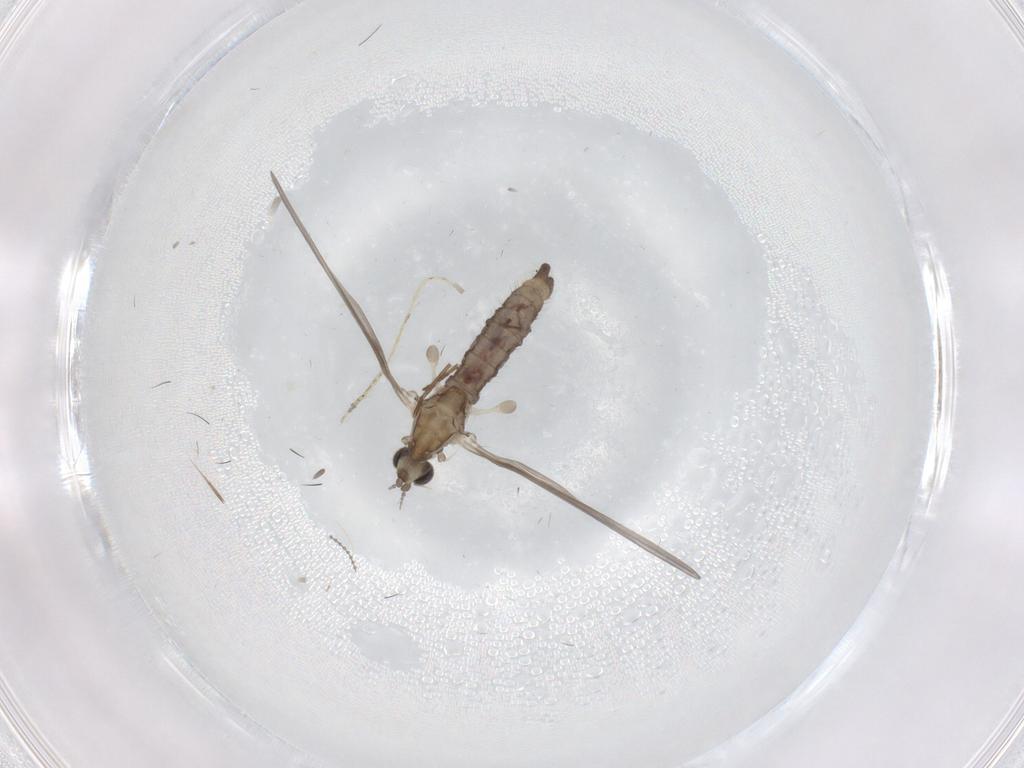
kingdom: Animalia
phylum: Arthropoda
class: Insecta
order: Diptera
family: Limoniidae
